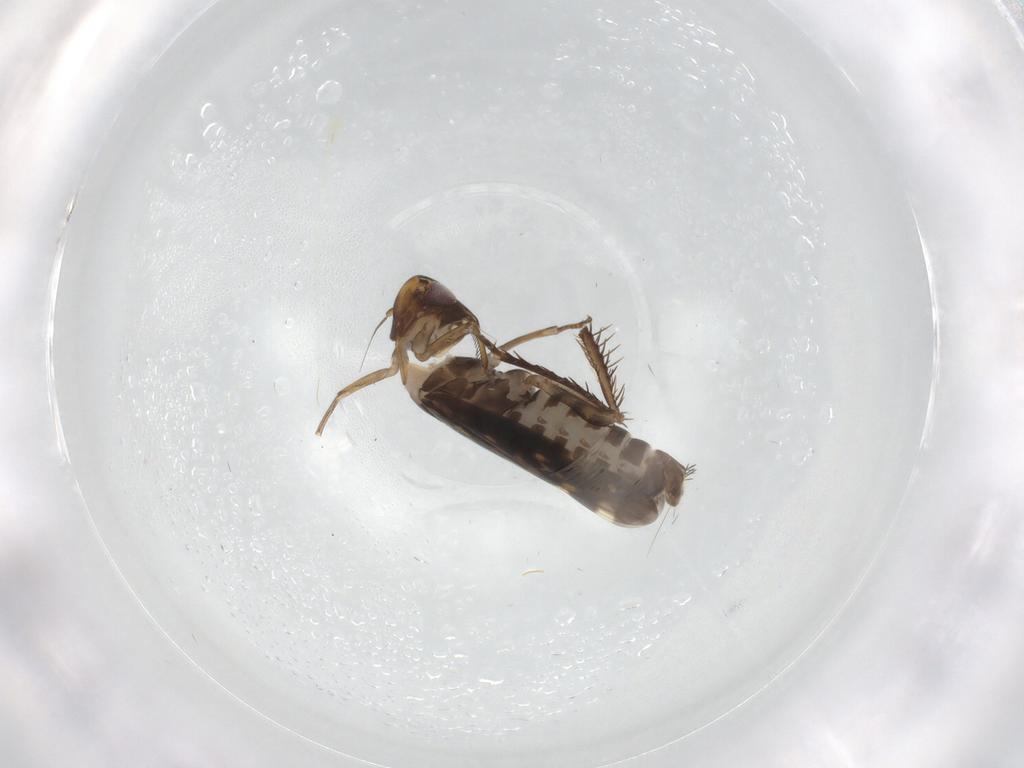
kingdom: Animalia
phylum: Arthropoda
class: Insecta
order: Hemiptera
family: Cicadellidae
